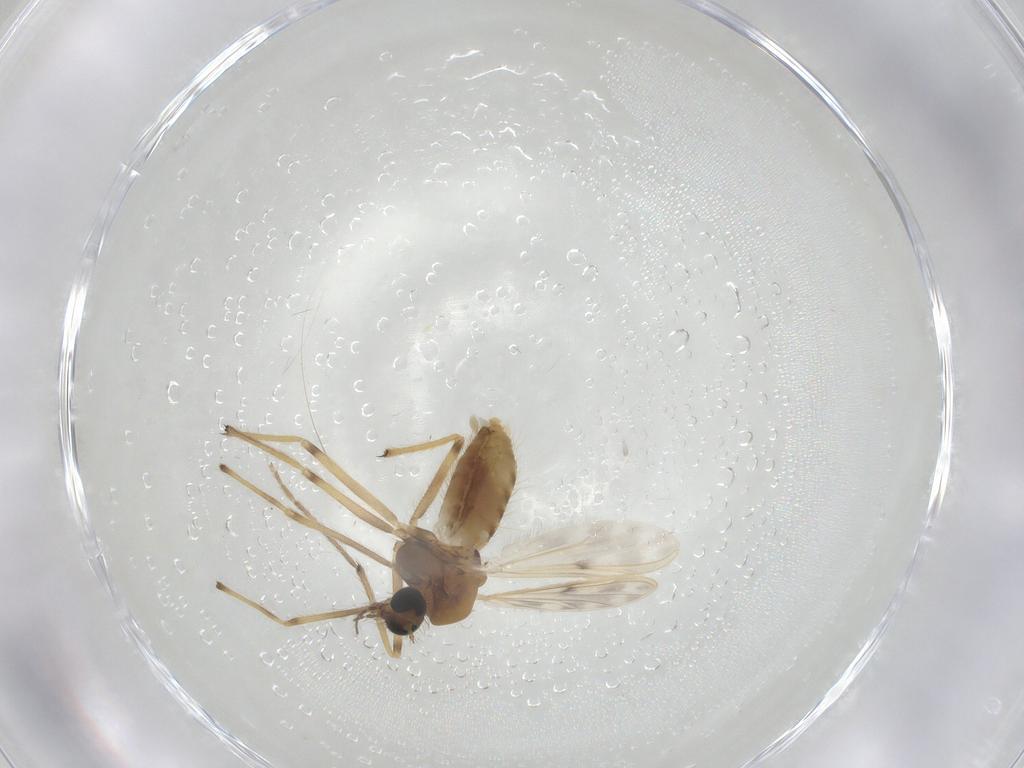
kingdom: Animalia
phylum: Arthropoda
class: Insecta
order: Diptera
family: Chironomidae
